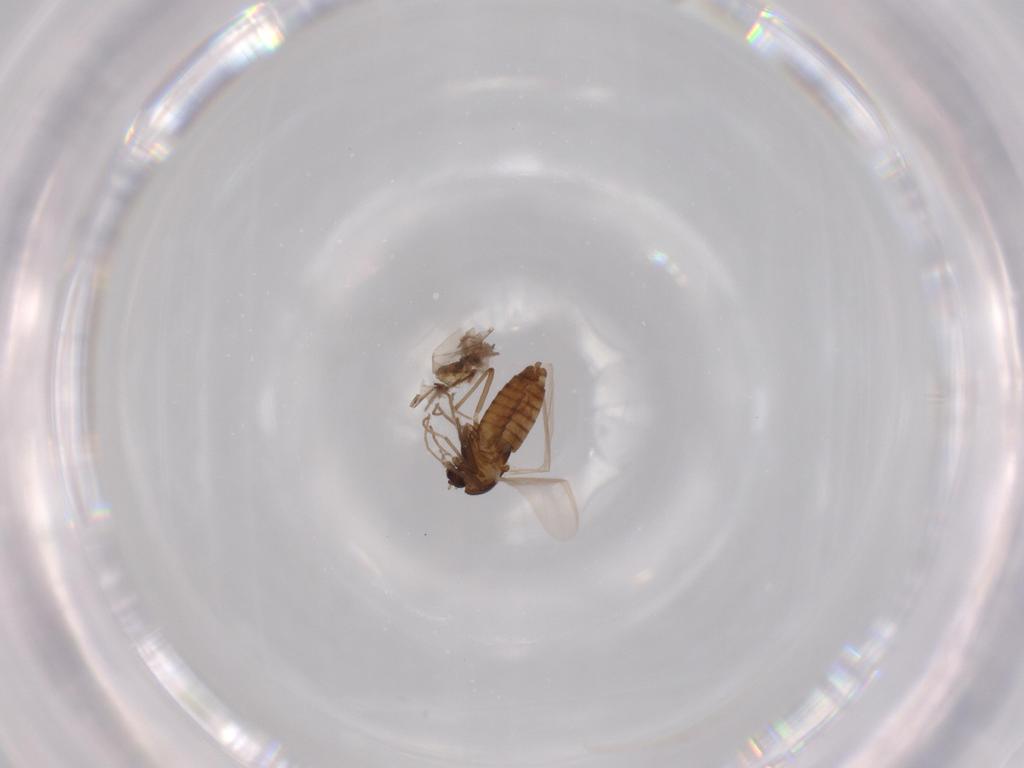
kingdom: Animalia
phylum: Arthropoda
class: Insecta
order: Diptera
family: Chironomidae
